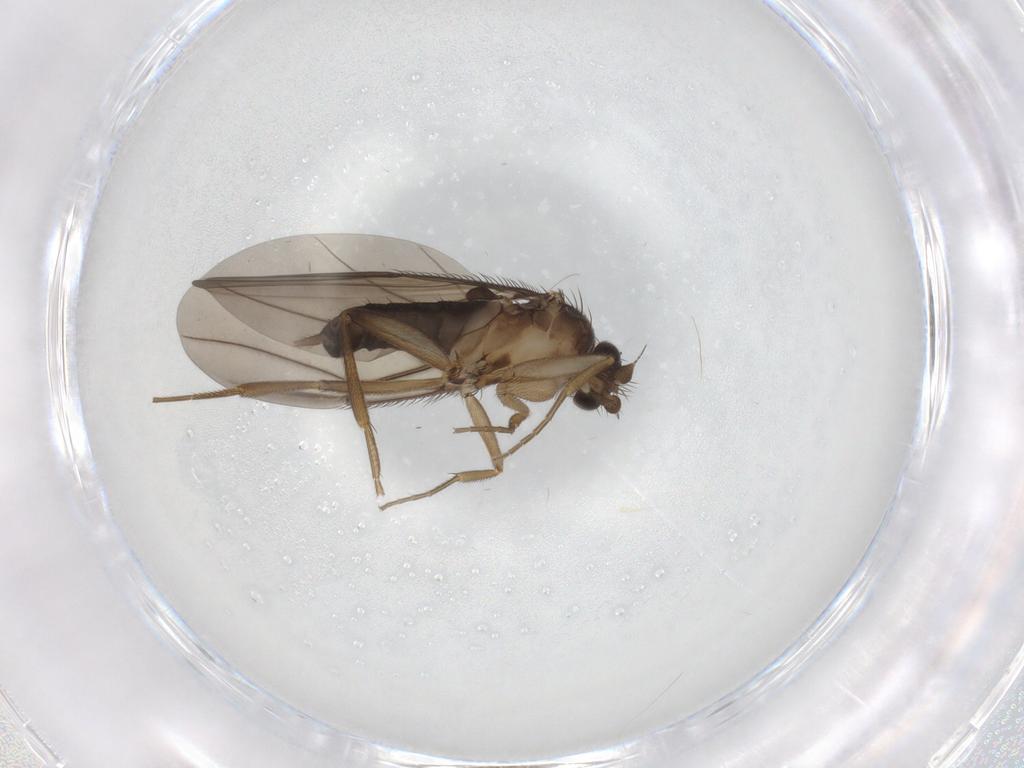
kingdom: Animalia
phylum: Arthropoda
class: Insecta
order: Diptera
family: Phoridae
